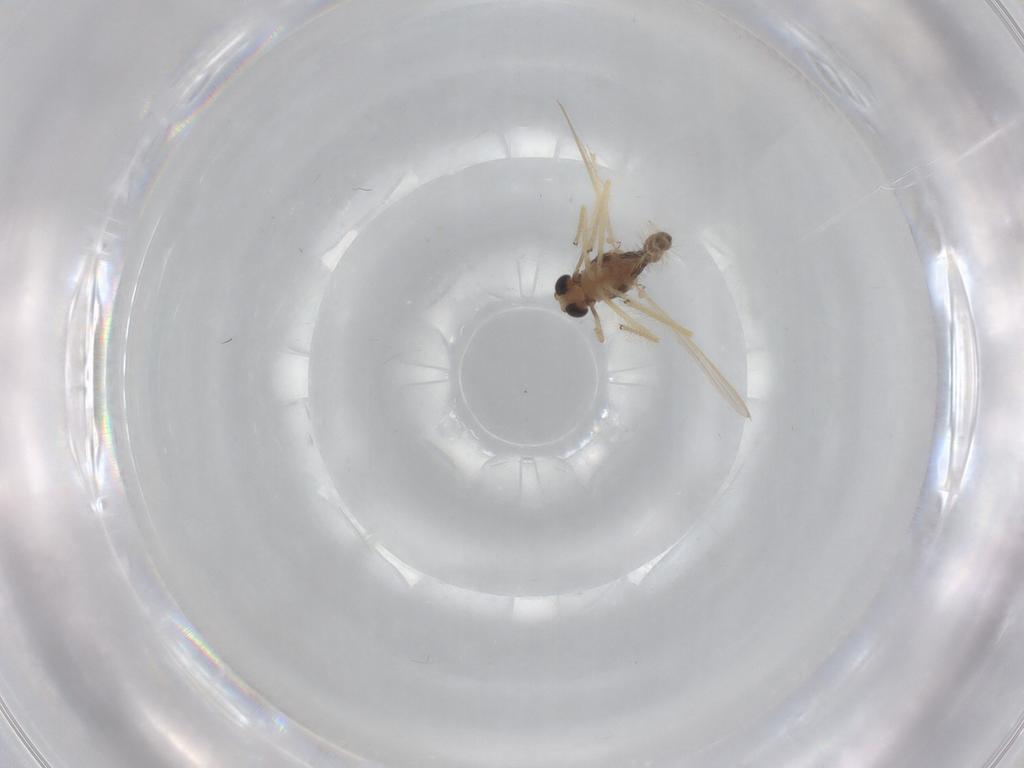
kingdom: Animalia
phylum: Arthropoda
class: Insecta
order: Diptera
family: Chironomidae
